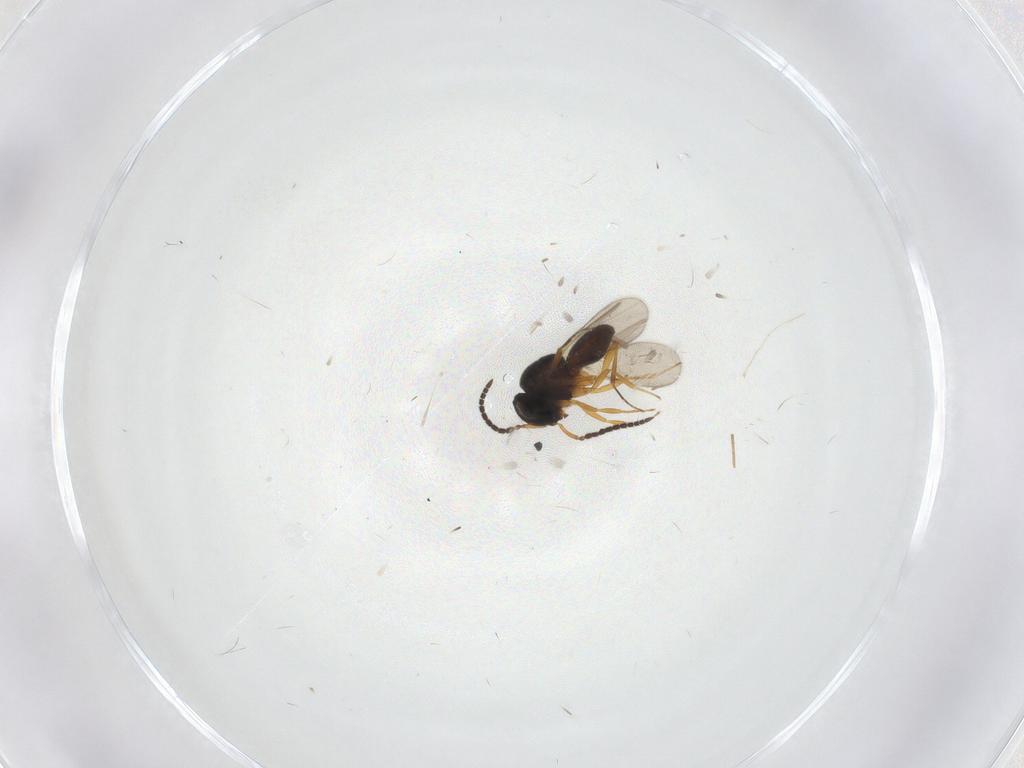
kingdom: Animalia
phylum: Arthropoda
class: Insecta
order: Hymenoptera
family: Scelionidae
